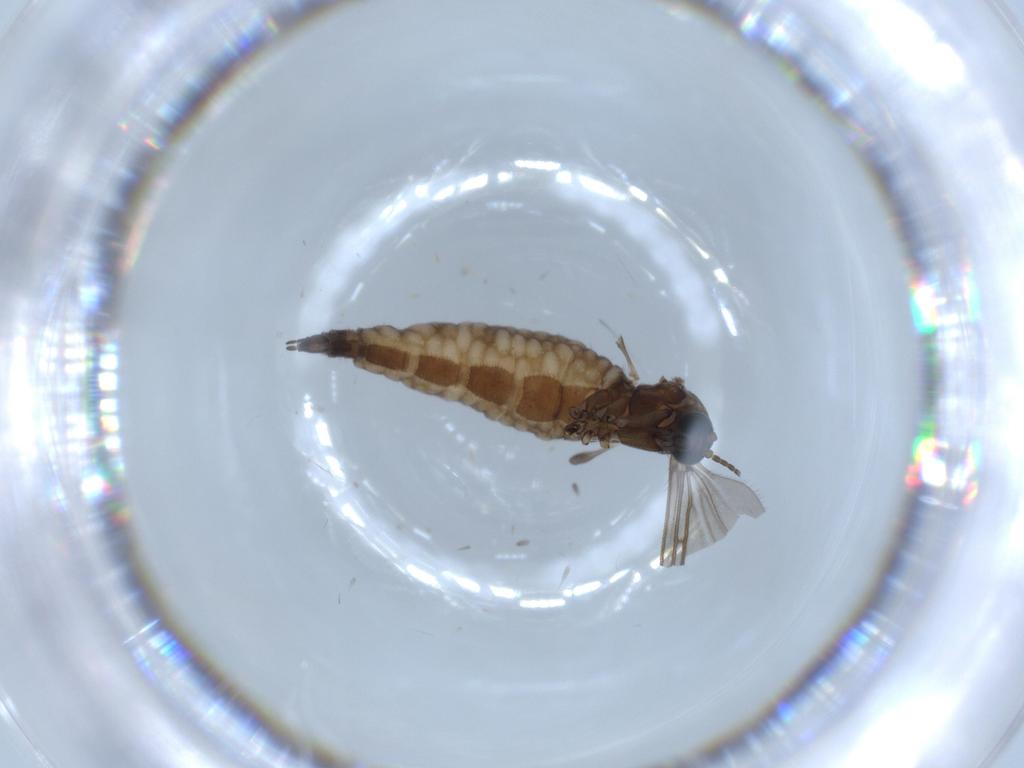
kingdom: Animalia
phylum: Arthropoda
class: Insecta
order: Diptera
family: Sciaridae
